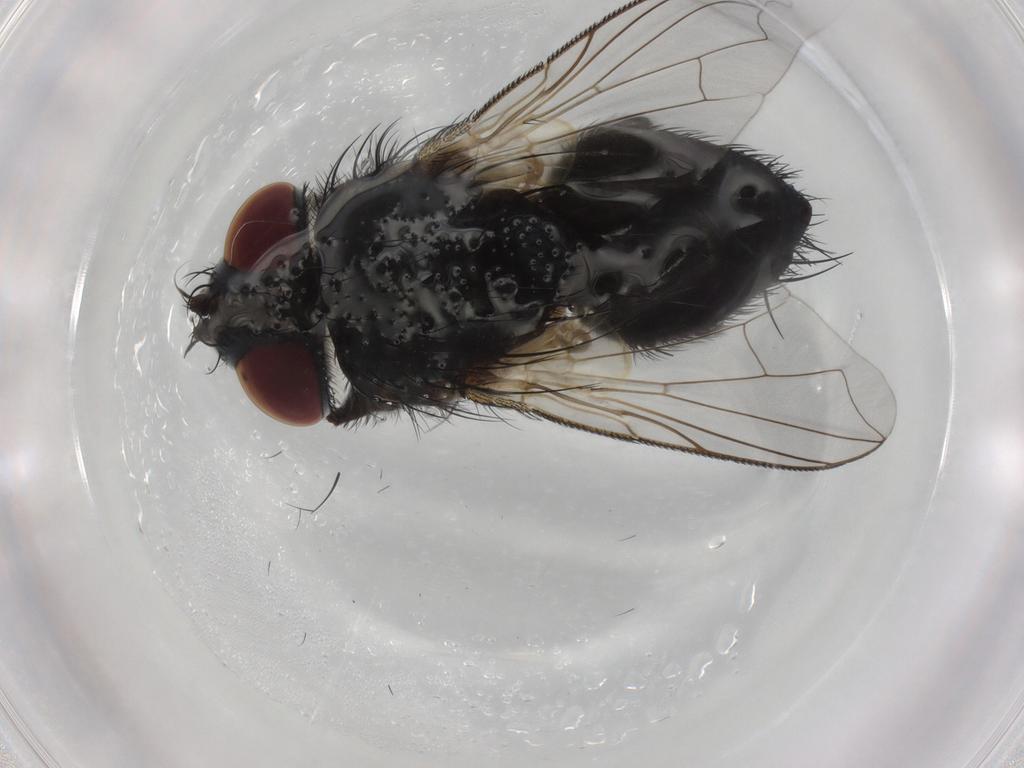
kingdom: Animalia
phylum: Arthropoda
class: Insecta
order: Diptera
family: Tachinidae
